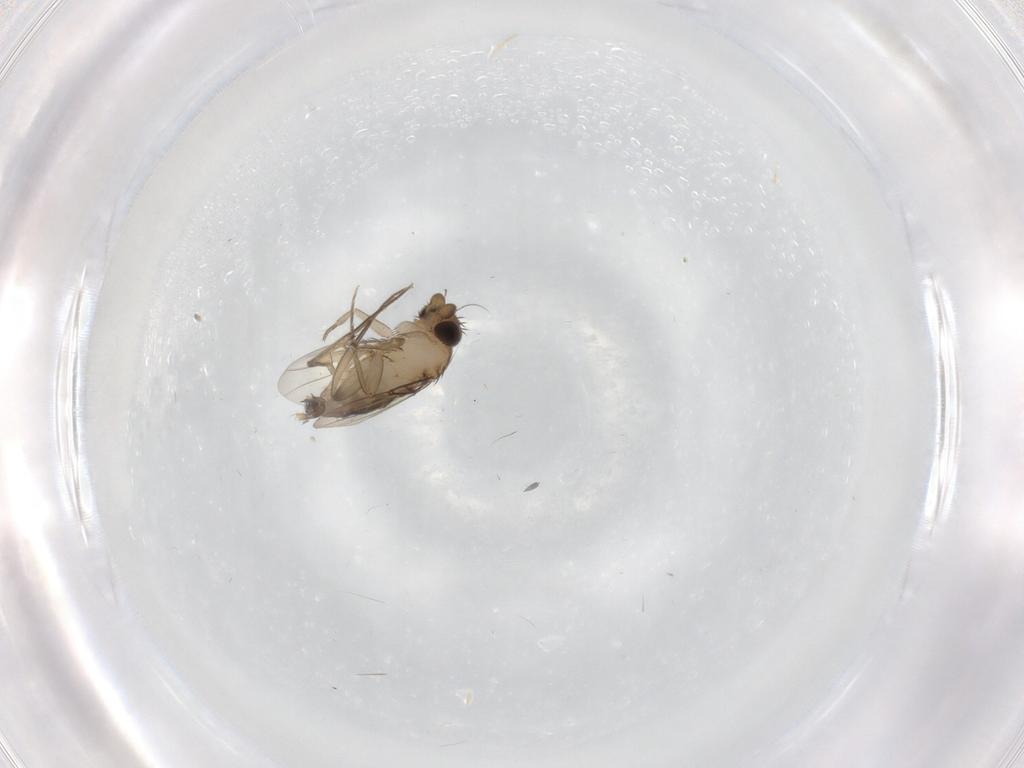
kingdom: Animalia
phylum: Arthropoda
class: Insecta
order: Diptera
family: Phoridae
